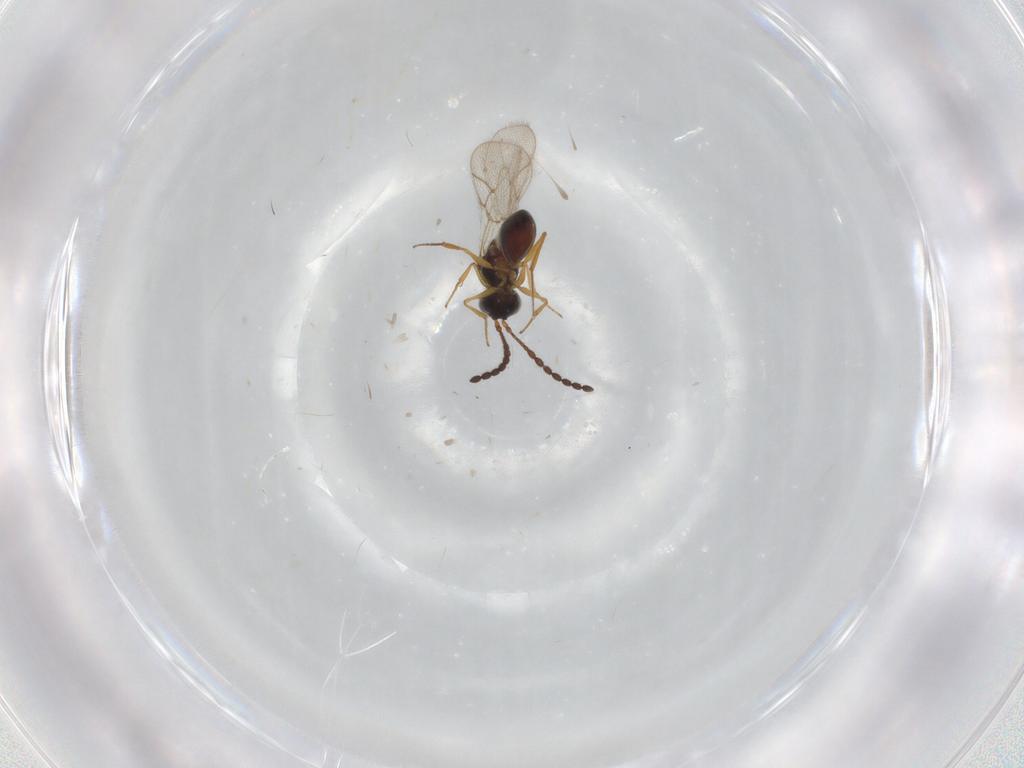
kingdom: Animalia
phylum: Arthropoda
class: Insecta
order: Hymenoptera
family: Figitidae
